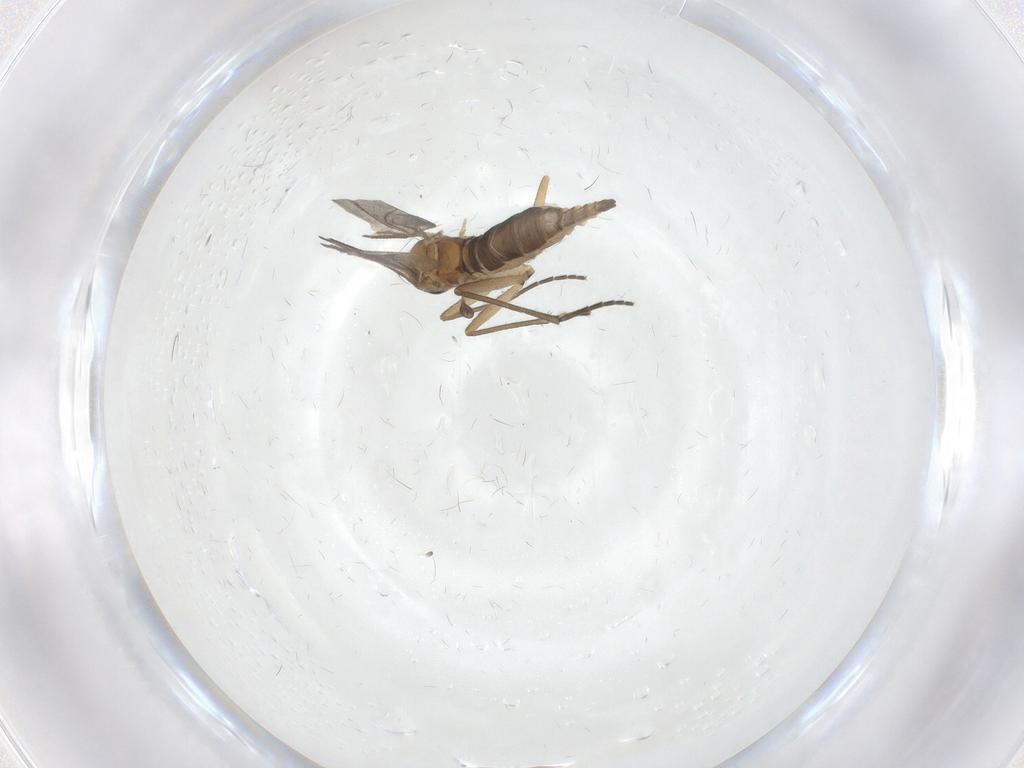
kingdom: Animalia
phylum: Arthropoda
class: Insecta
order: Diptera
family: Sciaridae
